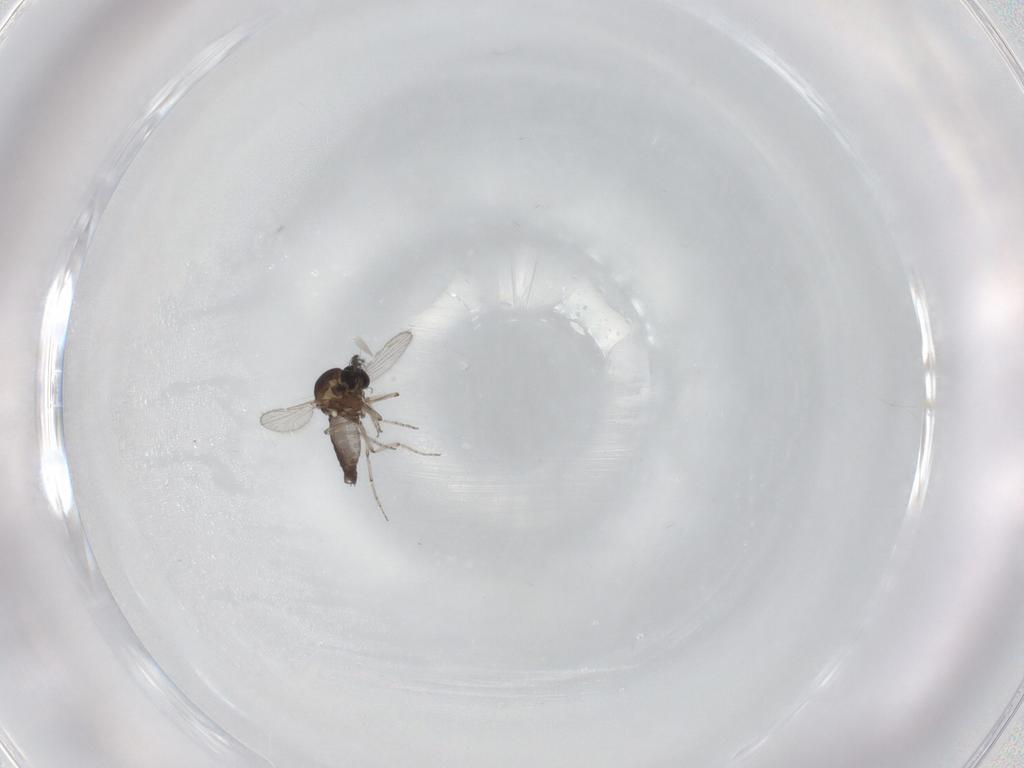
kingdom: Animalia
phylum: Arthropoda
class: Insecta
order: Diptera
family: Ceratopogonidae
